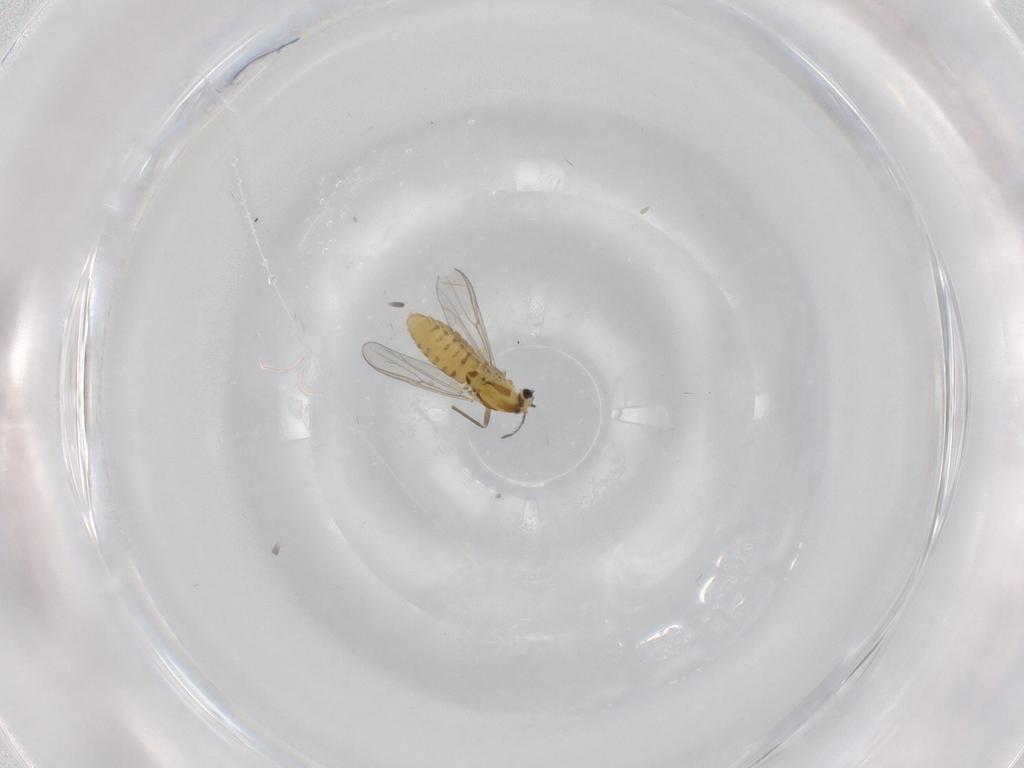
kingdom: Animalia
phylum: Arthropoda
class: Insecta
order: Diptera
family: Chironomidae
